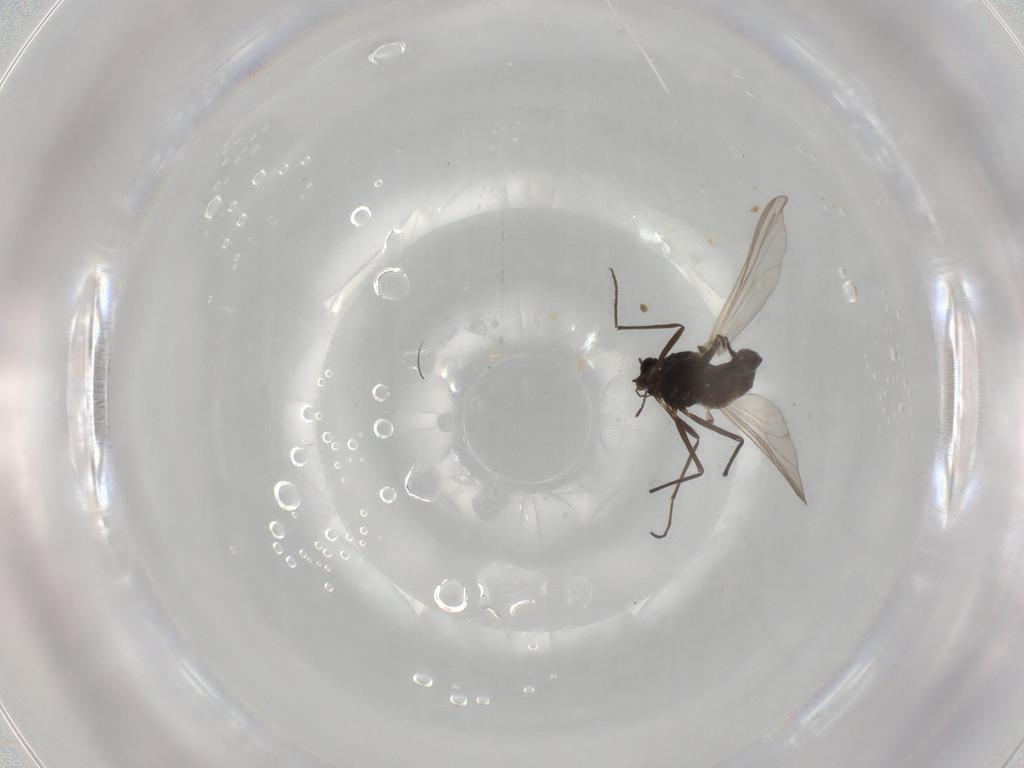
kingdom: Animalia
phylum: Arthropoda
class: Insecta
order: Diptera
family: Chironomidae
